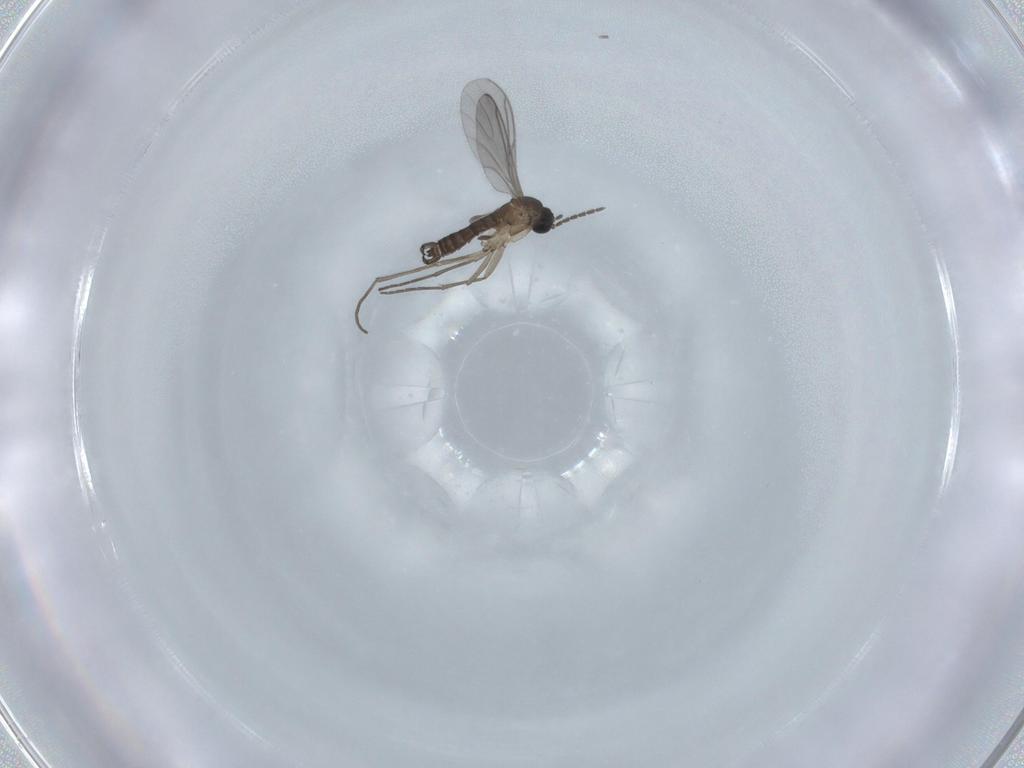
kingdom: Animalia
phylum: Arthropoda
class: Insecta
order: Diptera
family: Sciaridae
